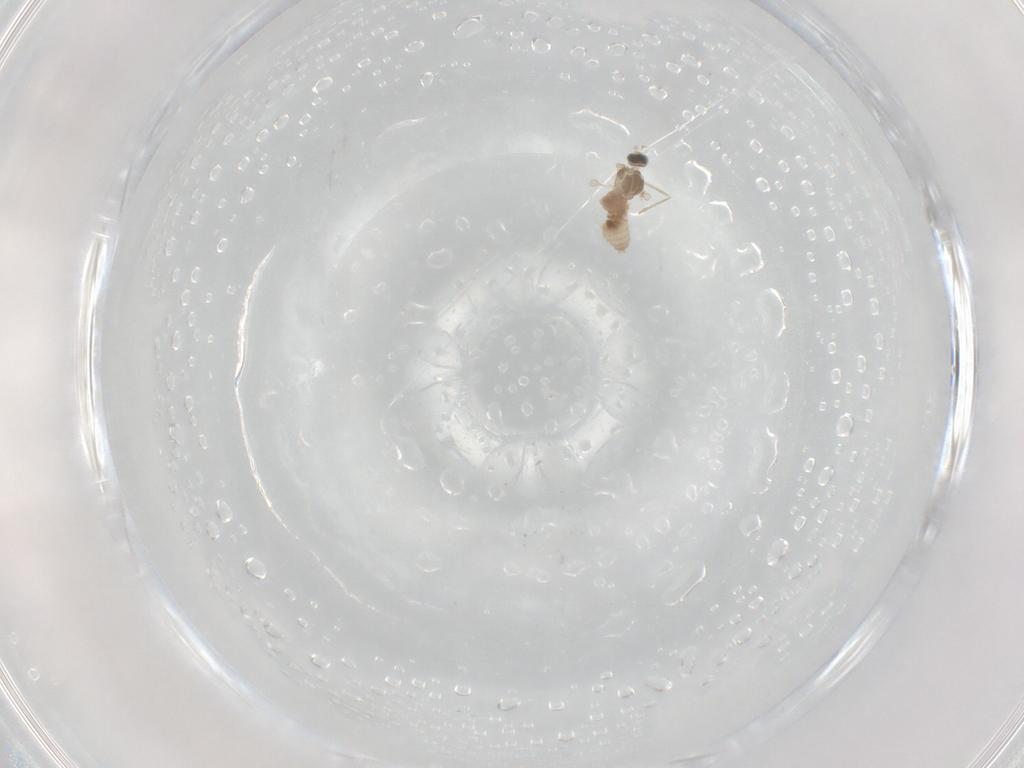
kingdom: Animalia
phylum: Arthropoda
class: Insecta
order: Diptera
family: Cecidomyiidae
